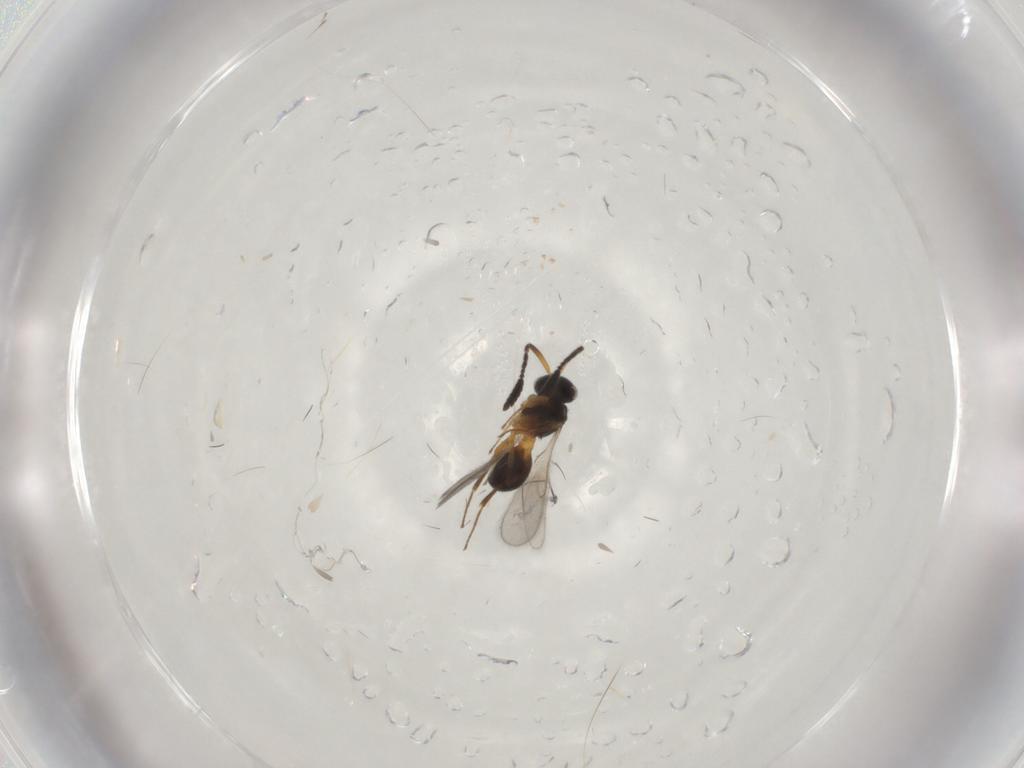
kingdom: Animalia
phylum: Arthropoda
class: Insecta
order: Hymenoptera
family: Scelionidae
